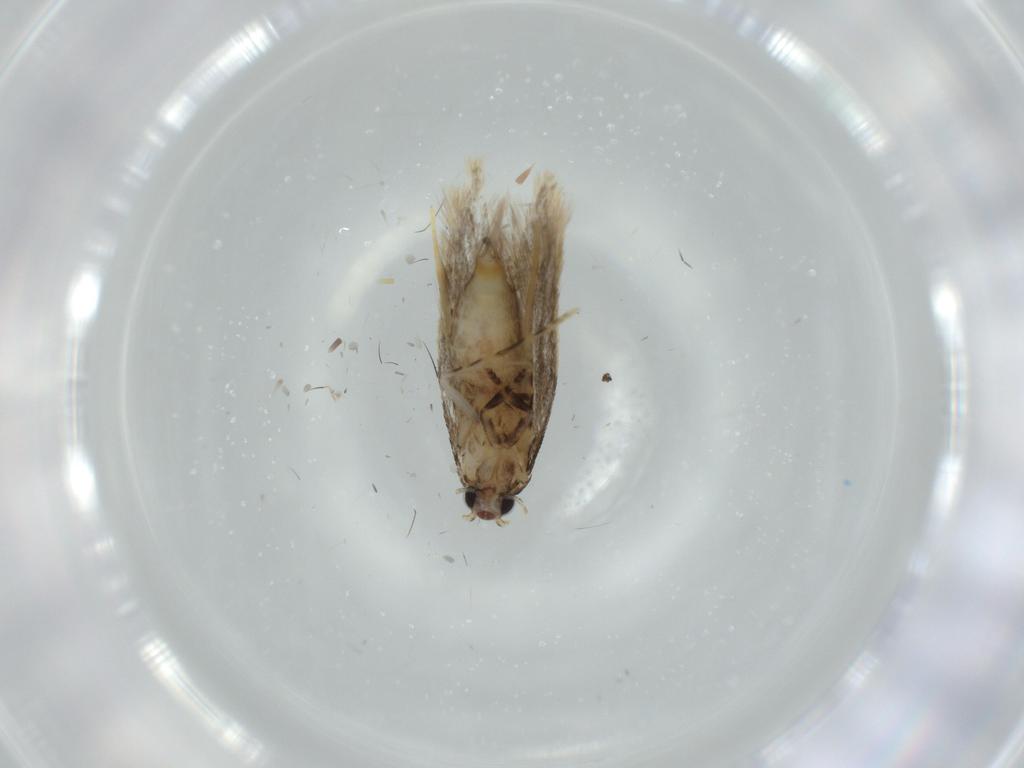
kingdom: Animalia
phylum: Arthropoda
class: Insecta
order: Lepidoptera
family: Tineidae
